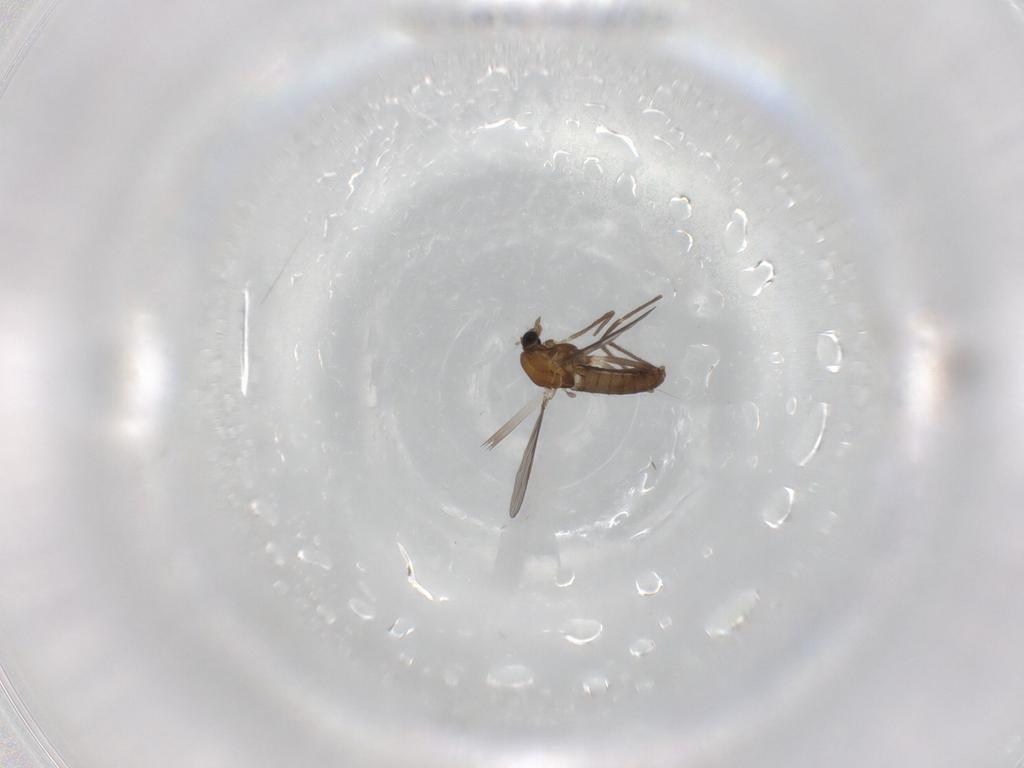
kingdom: Animalia
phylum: Arthropoda
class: Insecta
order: Diptera
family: Chironomidae
